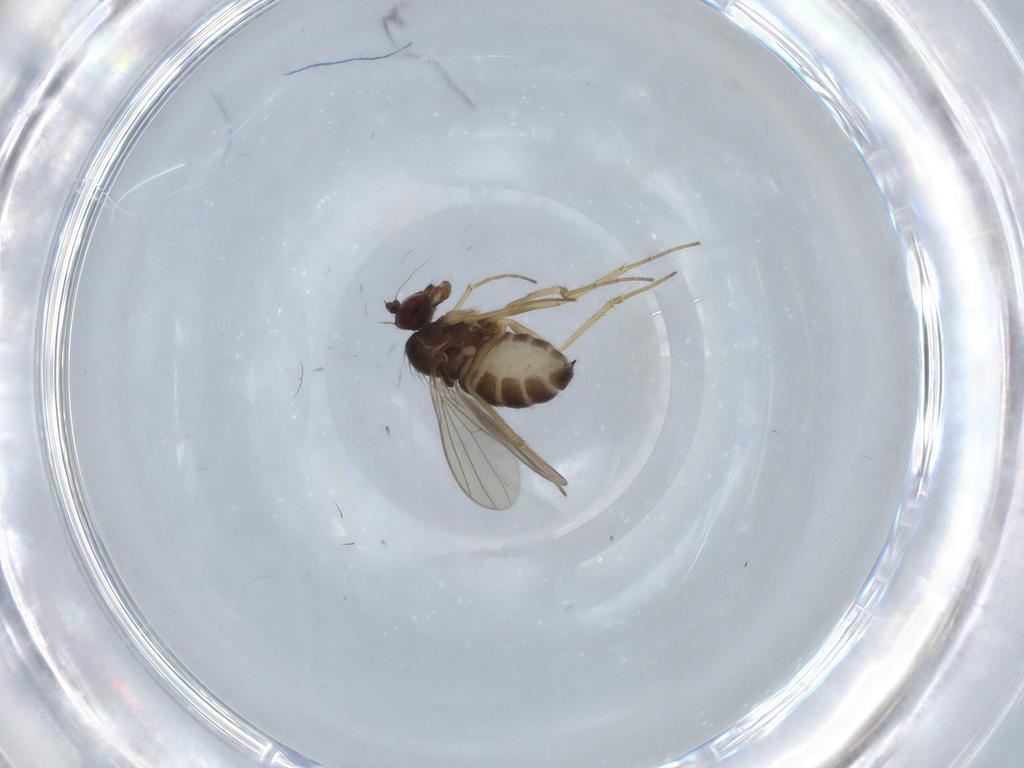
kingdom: Animalia
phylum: Arthropoda
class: Insecta
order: Diptera
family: Dolichopodidae
